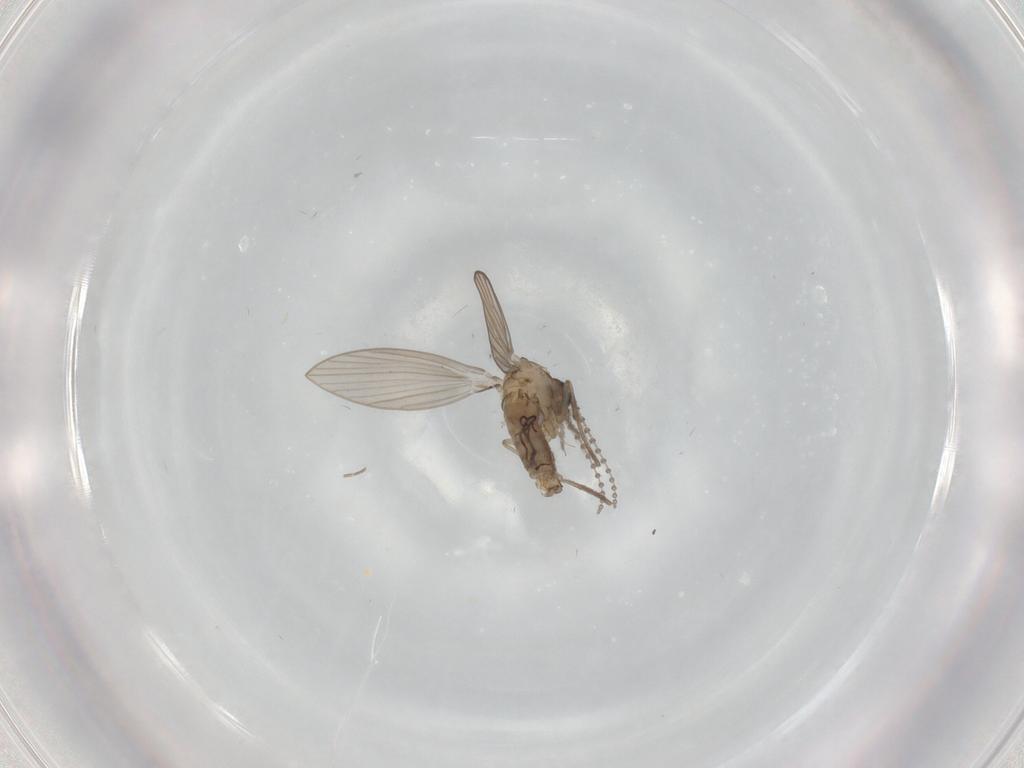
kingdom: Animalia
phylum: Arthropoda
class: Insecta
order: Diptera
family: Psychodidae
